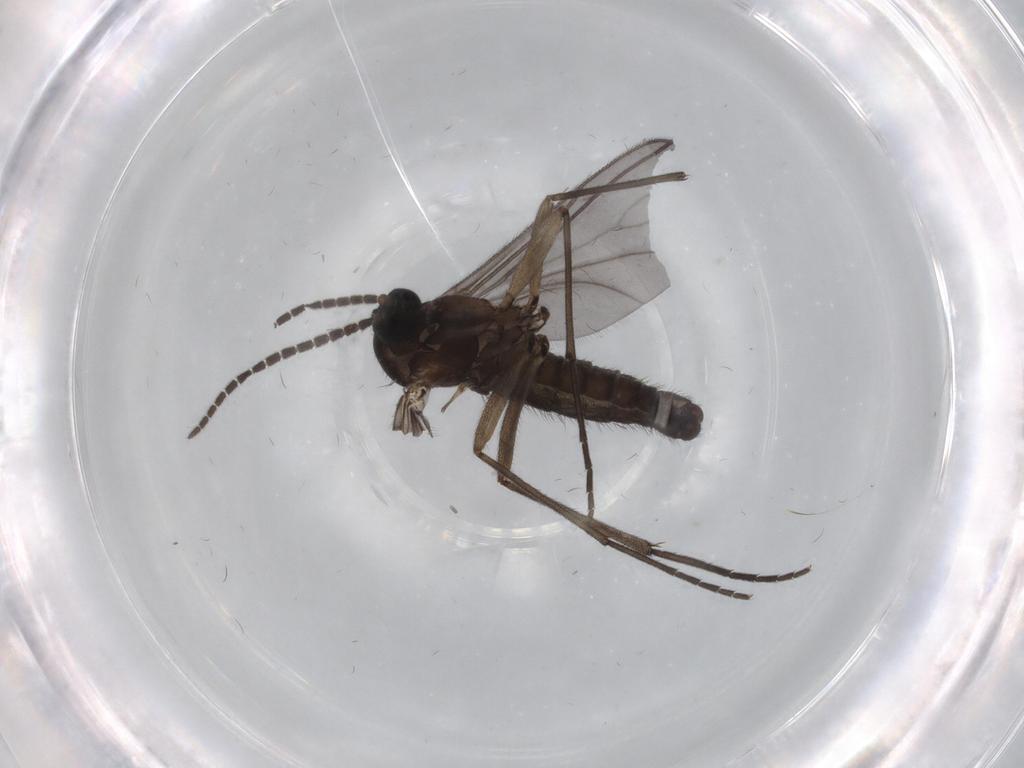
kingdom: Animalia
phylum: Arthropoda
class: Insecta
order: Diptera
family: Sciaridae
